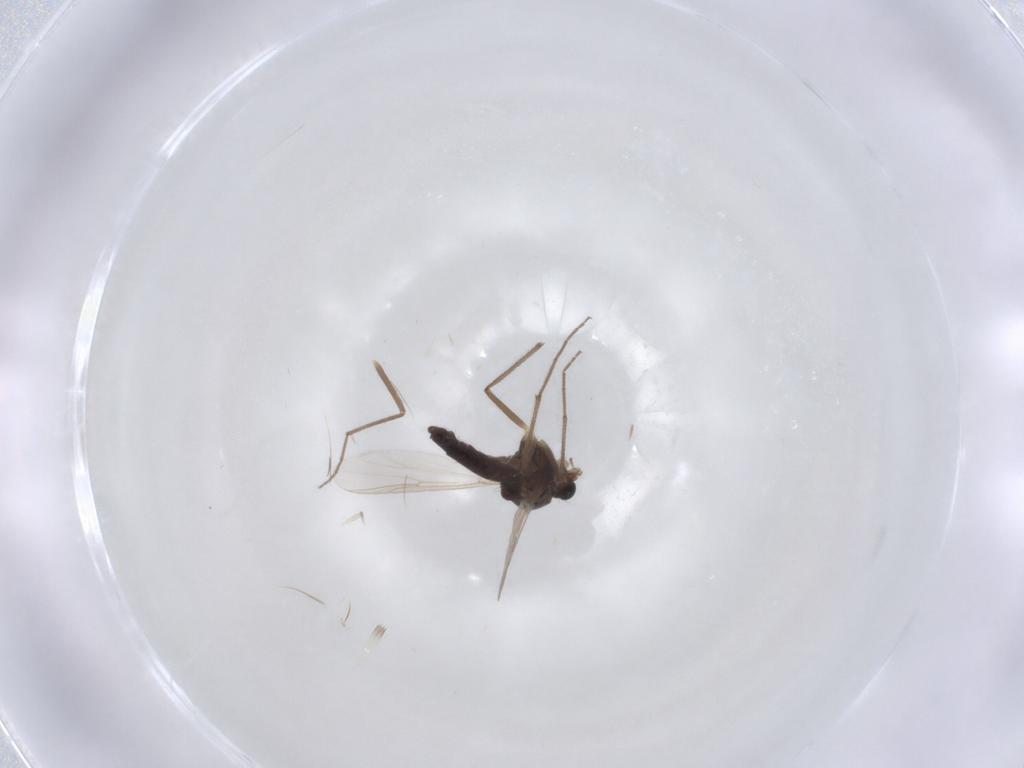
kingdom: Animalia
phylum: Arthropoda
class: Insecta
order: Diptera
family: Chironomidae
